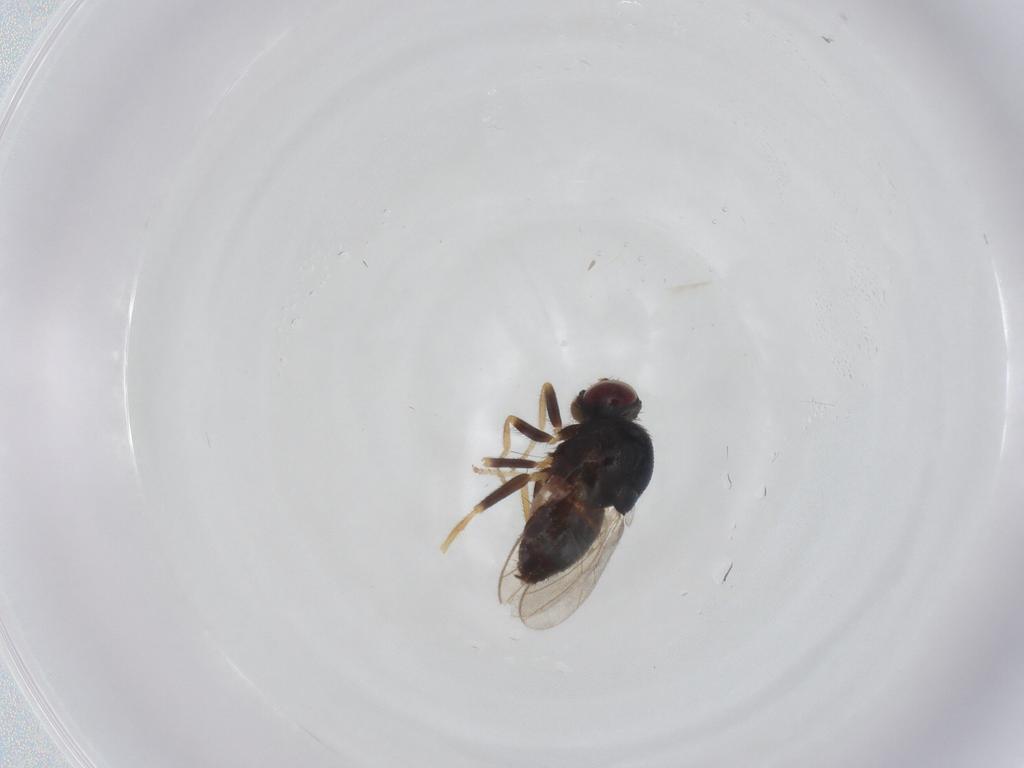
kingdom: Animalia
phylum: Arthropoda
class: Insecta
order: Diptera
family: Chloropidae
